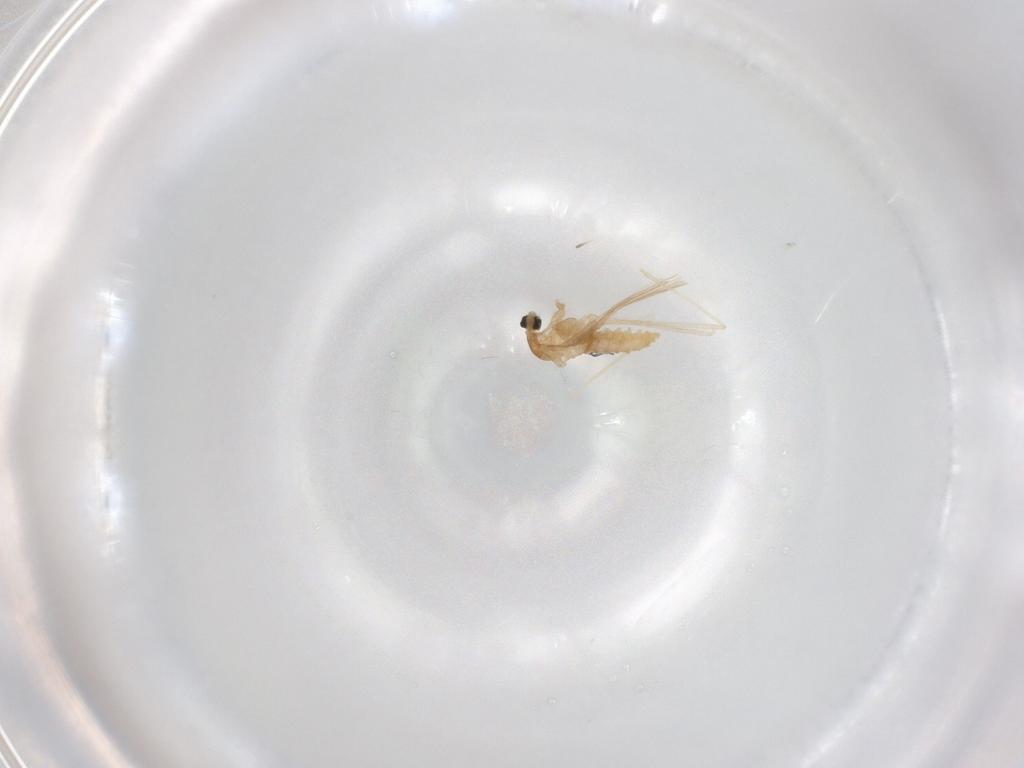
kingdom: Animalia
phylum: Arthropoda
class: Insecta
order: Diptera
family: Cecidomyiidae
